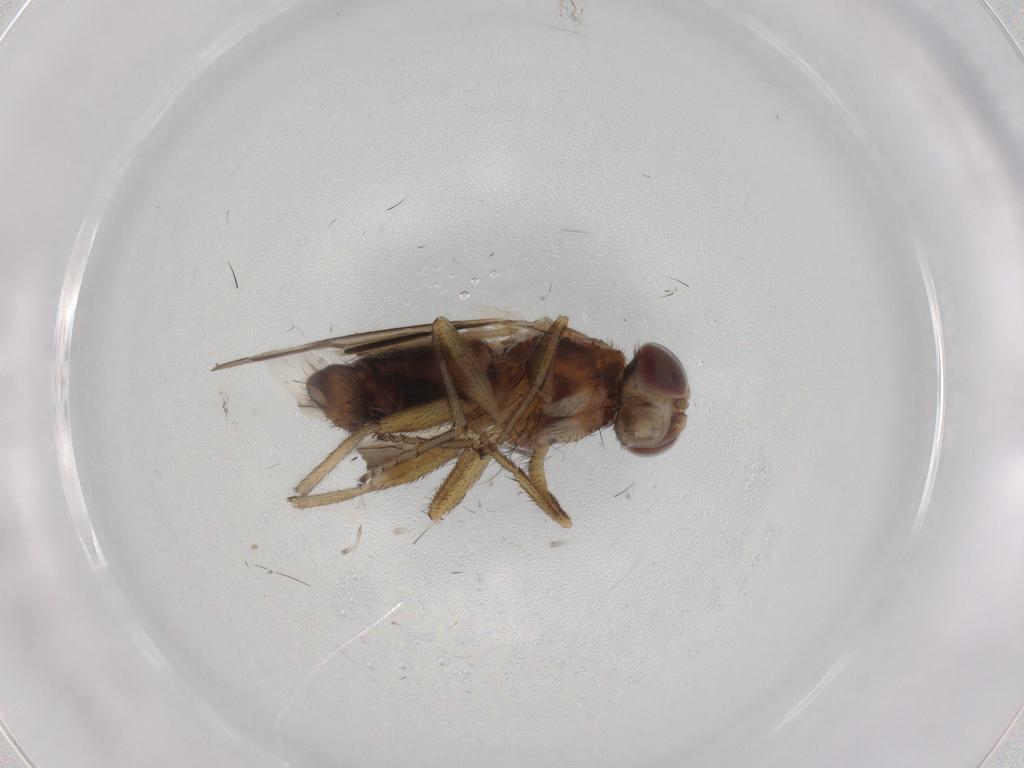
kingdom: Animalia
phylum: Arthropoda
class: Insecta
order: Diptera
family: Heleomyzidae
